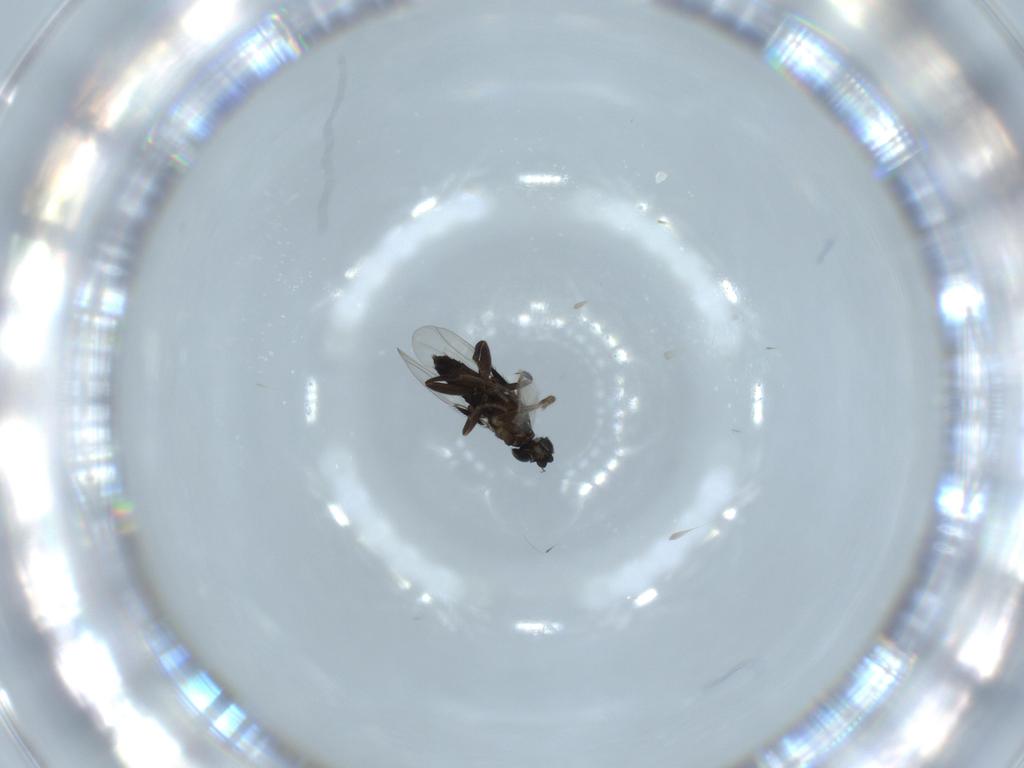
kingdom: Animalia
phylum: Arthropoda
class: Insecta
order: Diptera
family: Phoridae
